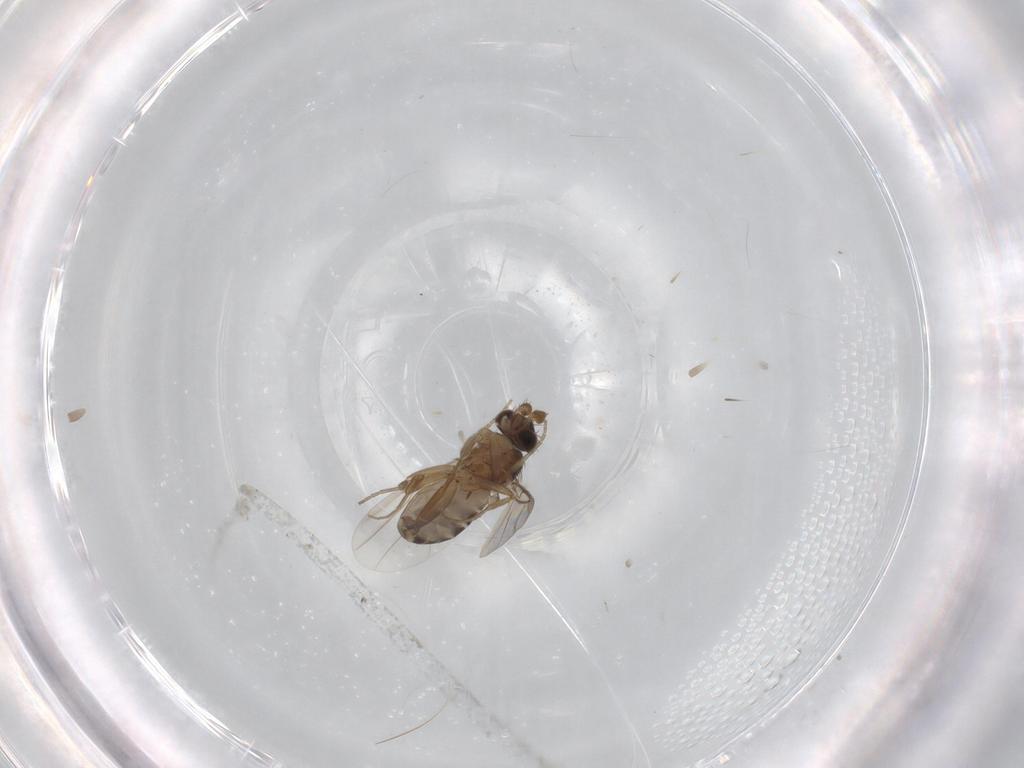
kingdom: Animalia
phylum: Arthropoda
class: Insecta
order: Diptera
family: Phoridae
